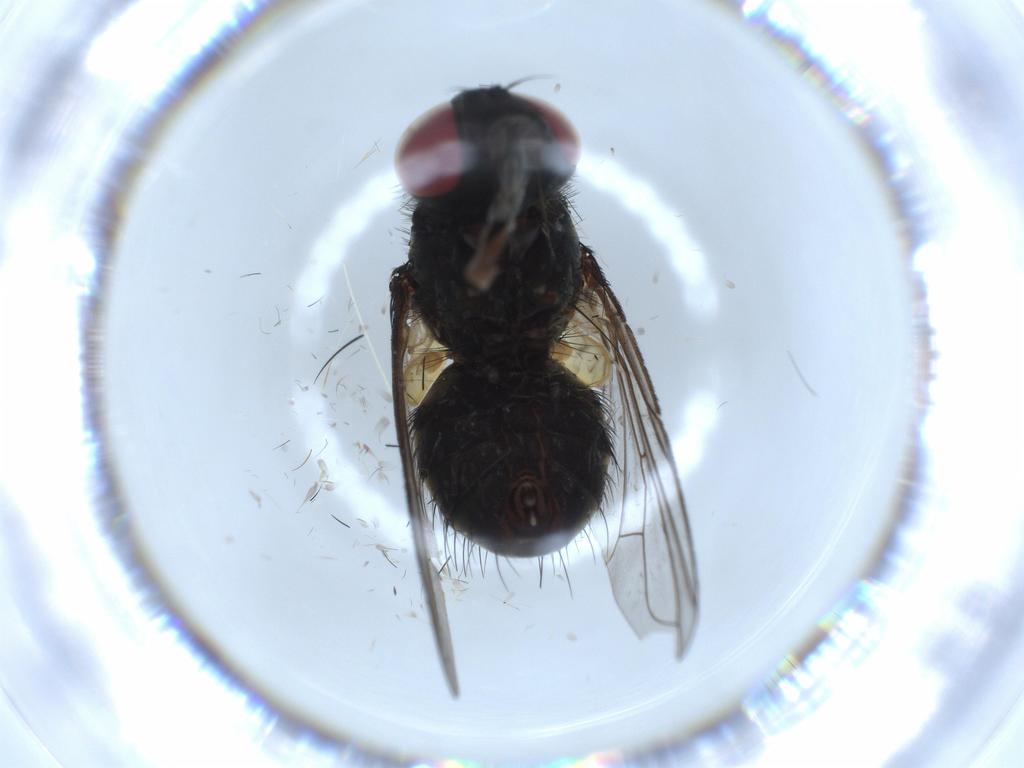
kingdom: Animalia
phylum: Arthropoda
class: Insecta
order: Diptera
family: Tachinidae
